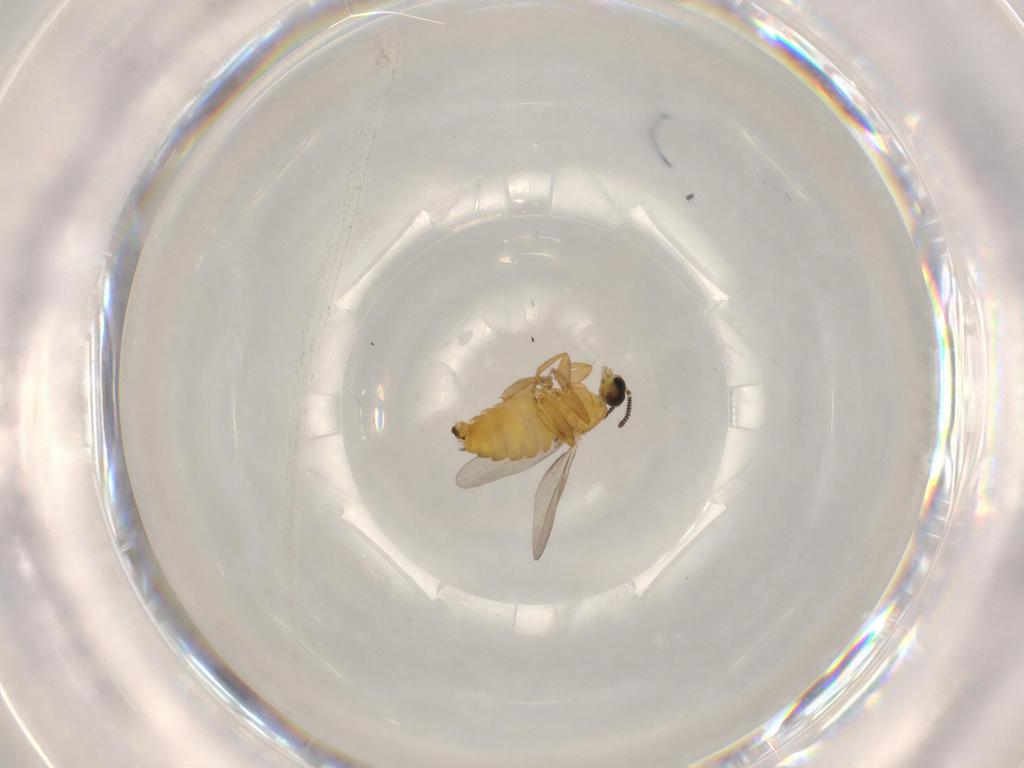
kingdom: Animalia
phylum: Arthropoda
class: Insecta
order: Diptera
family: Scatopsidae
